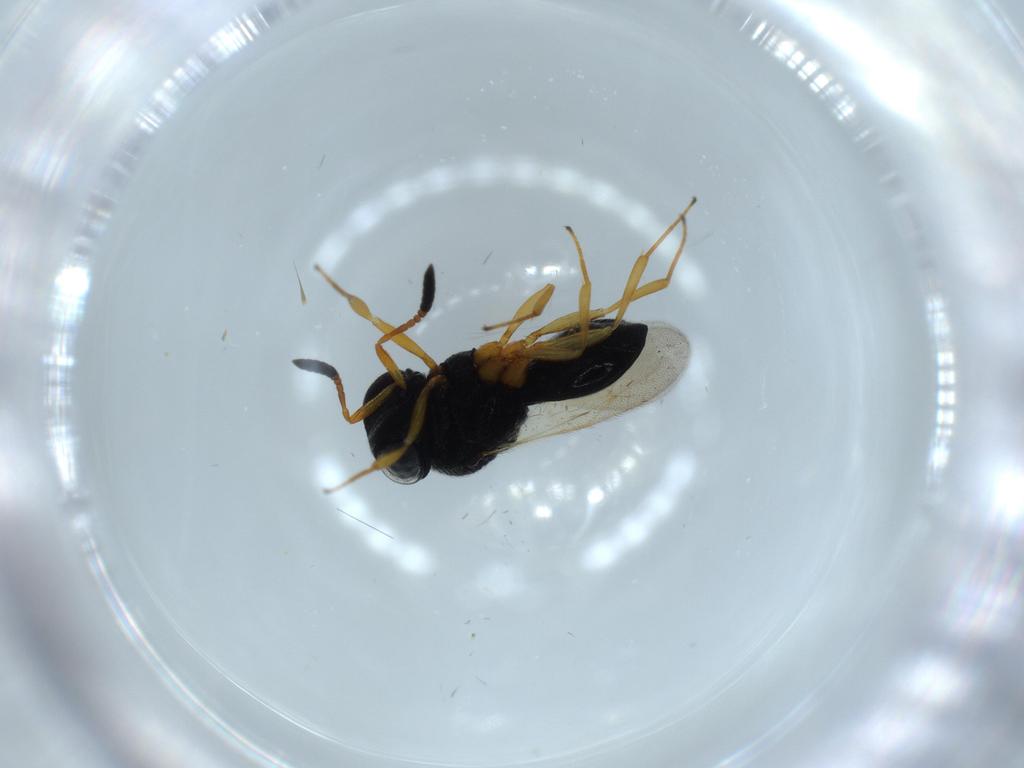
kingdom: Animalia
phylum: Arthropoda
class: Insecta
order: Hymenoptera
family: Scelionidae
